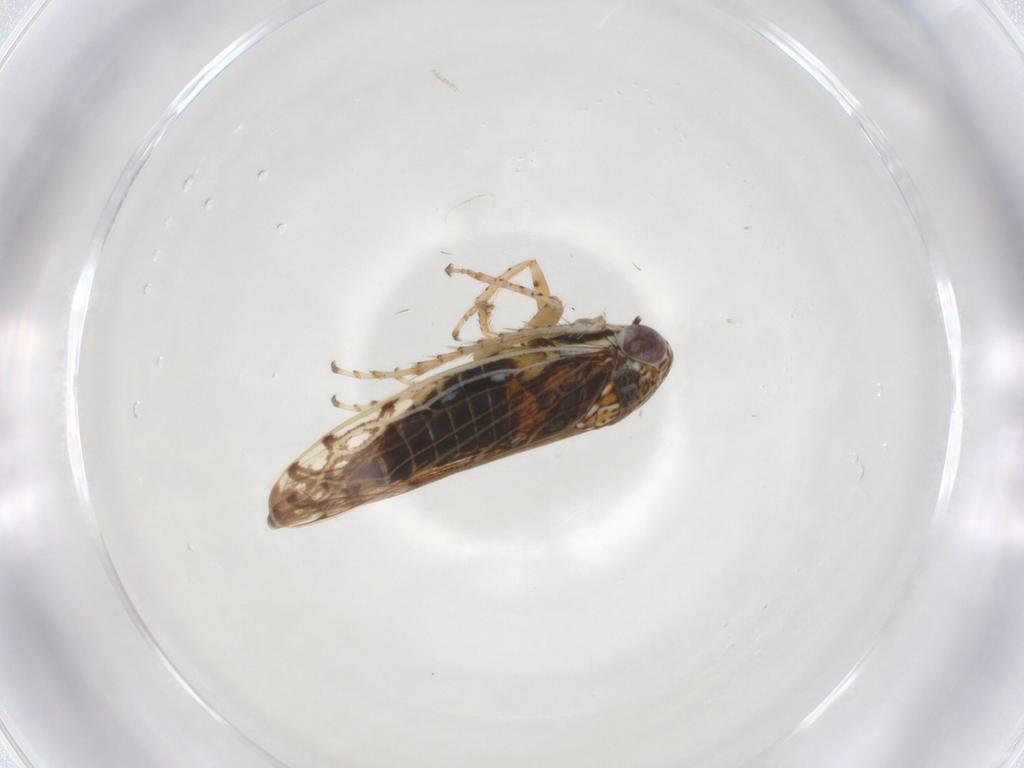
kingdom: Animalia
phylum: Arthropoda
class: Insecta
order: Hemiptera
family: Cicadellidae
